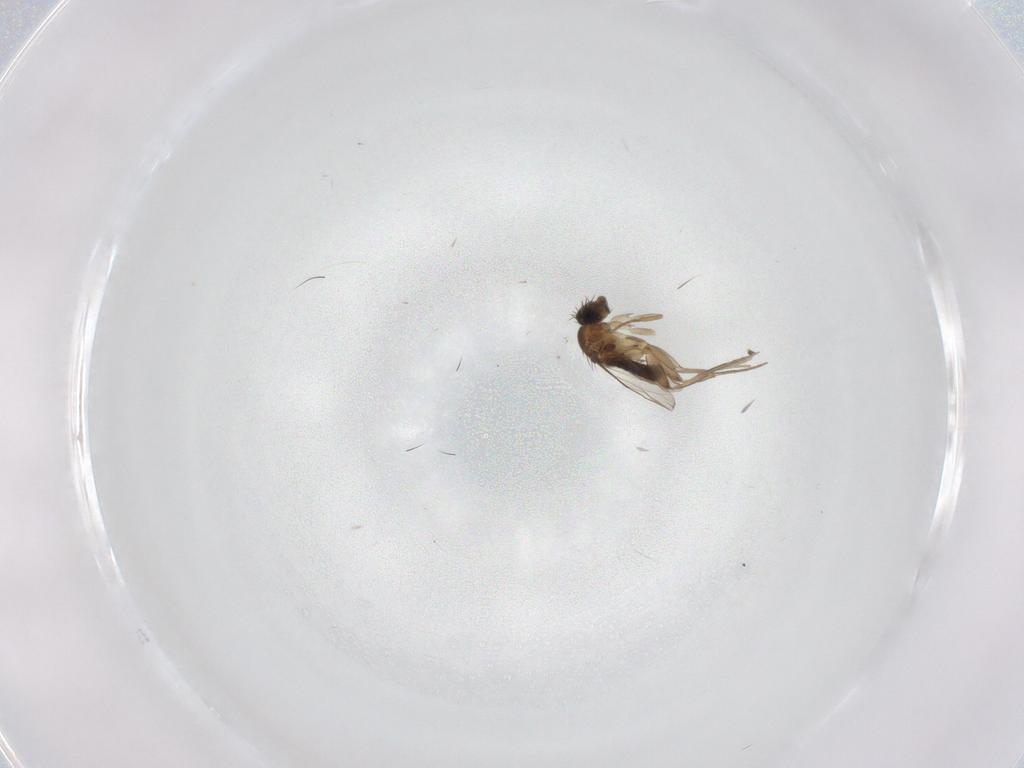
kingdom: Animalia
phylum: Arthropoda
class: Insecta
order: Diptera
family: Phoridae
